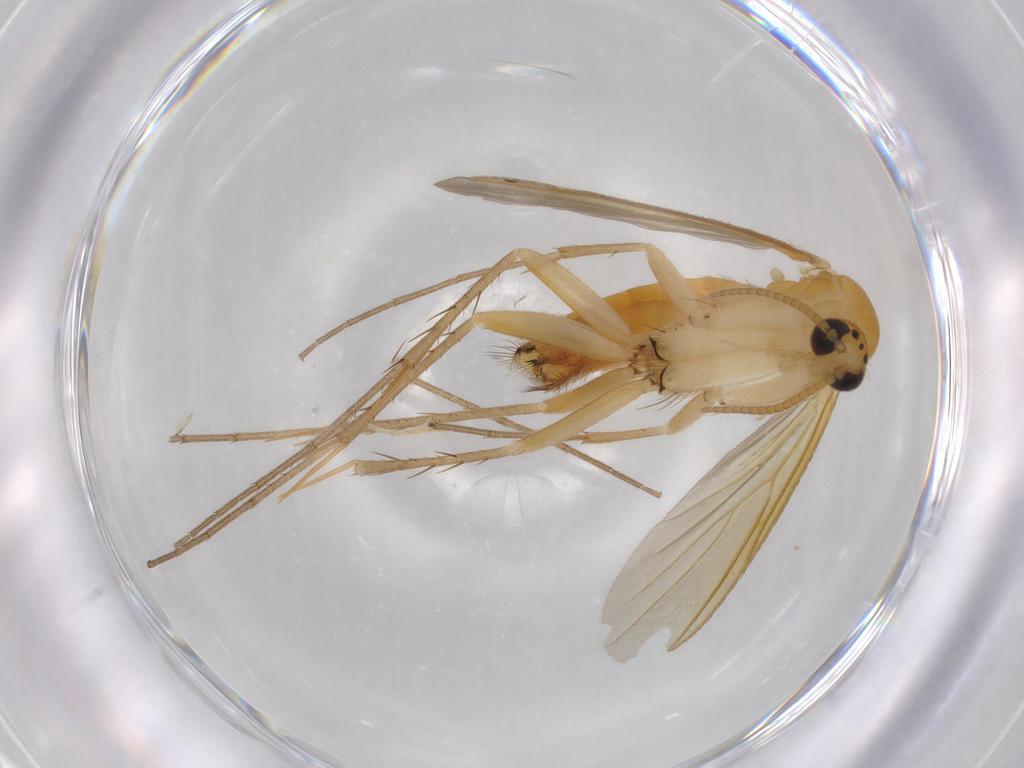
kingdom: Animalia
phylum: Arthropoda
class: Insecta
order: Diptera
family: Mycetophilidae
